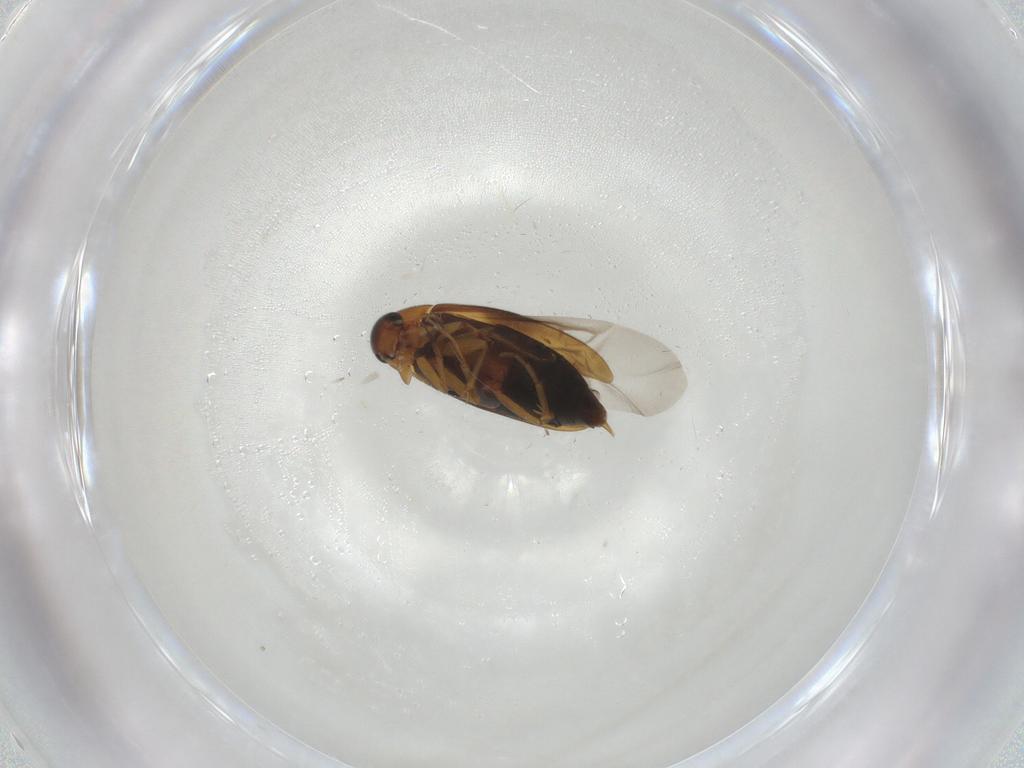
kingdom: Animalia
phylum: Arthropoda
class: Insecta
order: Coleoptera
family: Scraptiidae
